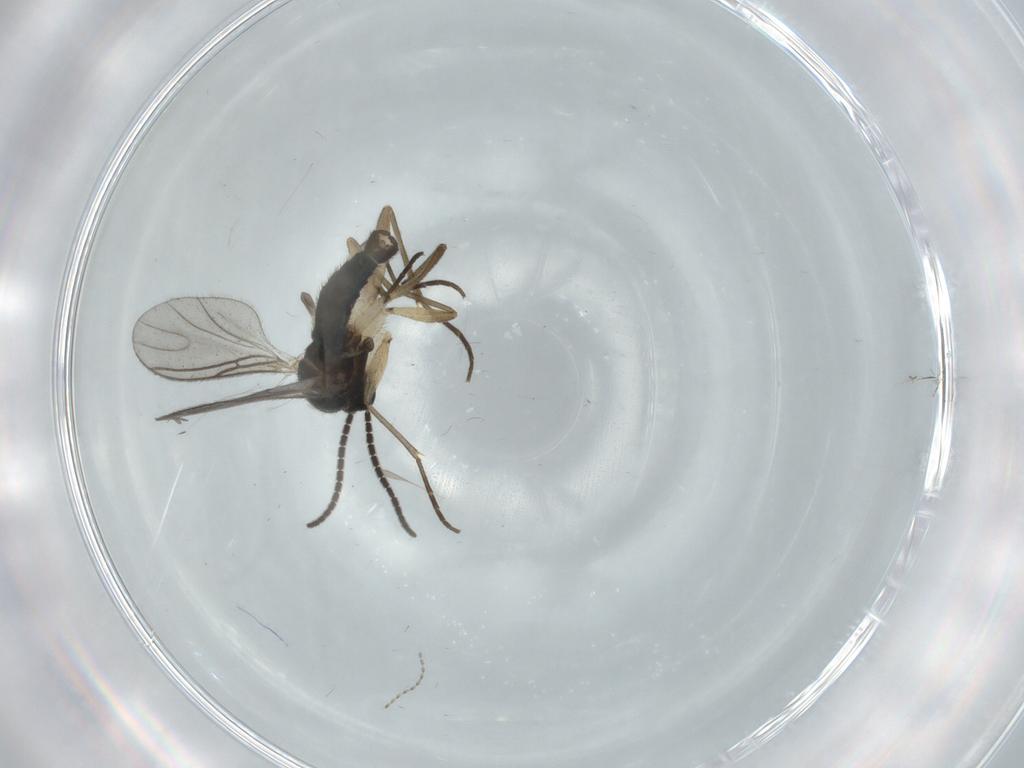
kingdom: Animalia
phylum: Arthropoda
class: Insecta
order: Diptera
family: Sciaridae
